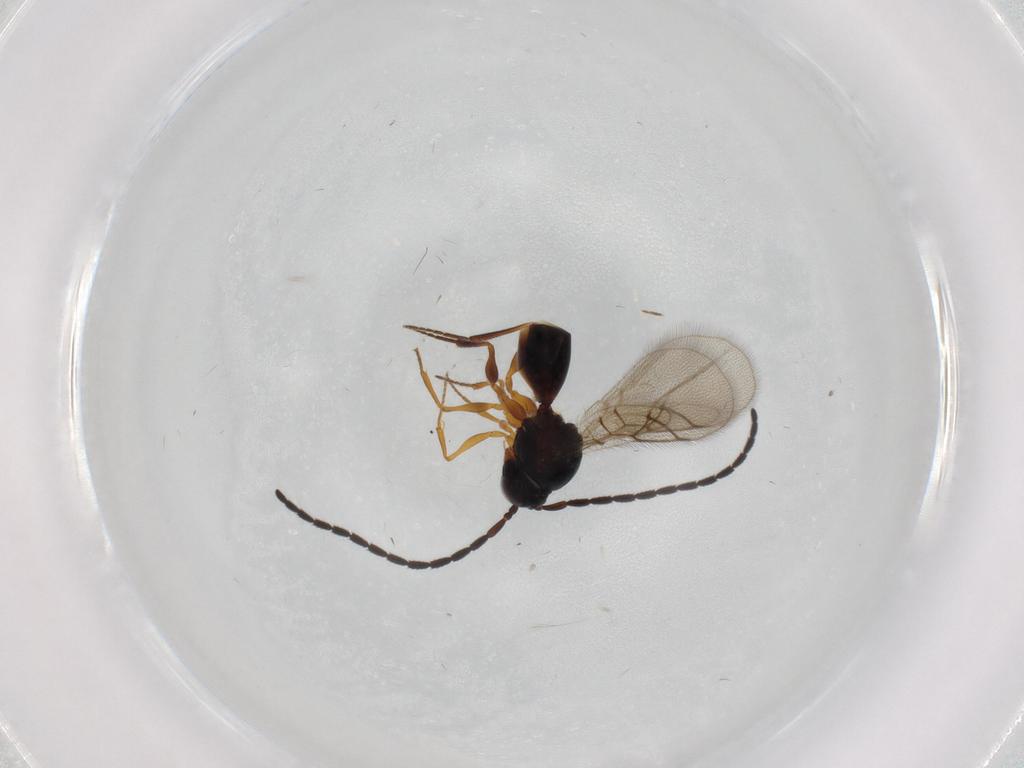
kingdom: Animalia
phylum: Arthropoda
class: Insecta
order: Hymenoptera
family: Figitidae
